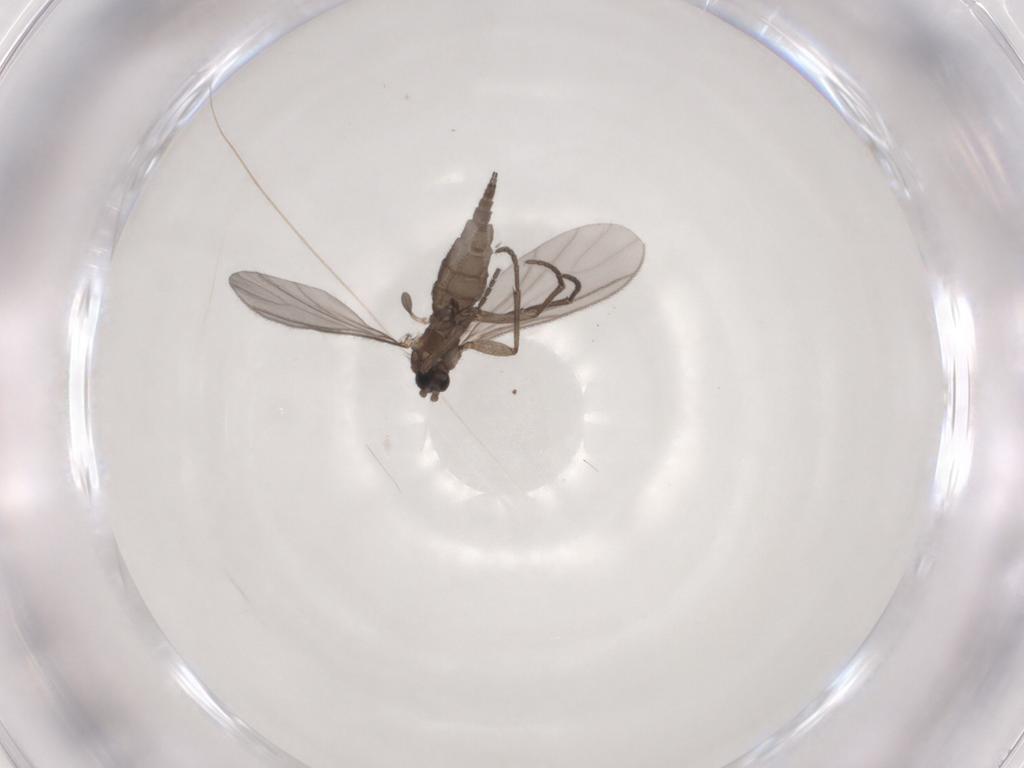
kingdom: Animalia
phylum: Arthropoda
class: Insecta
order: Diptera
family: Sciaridae
